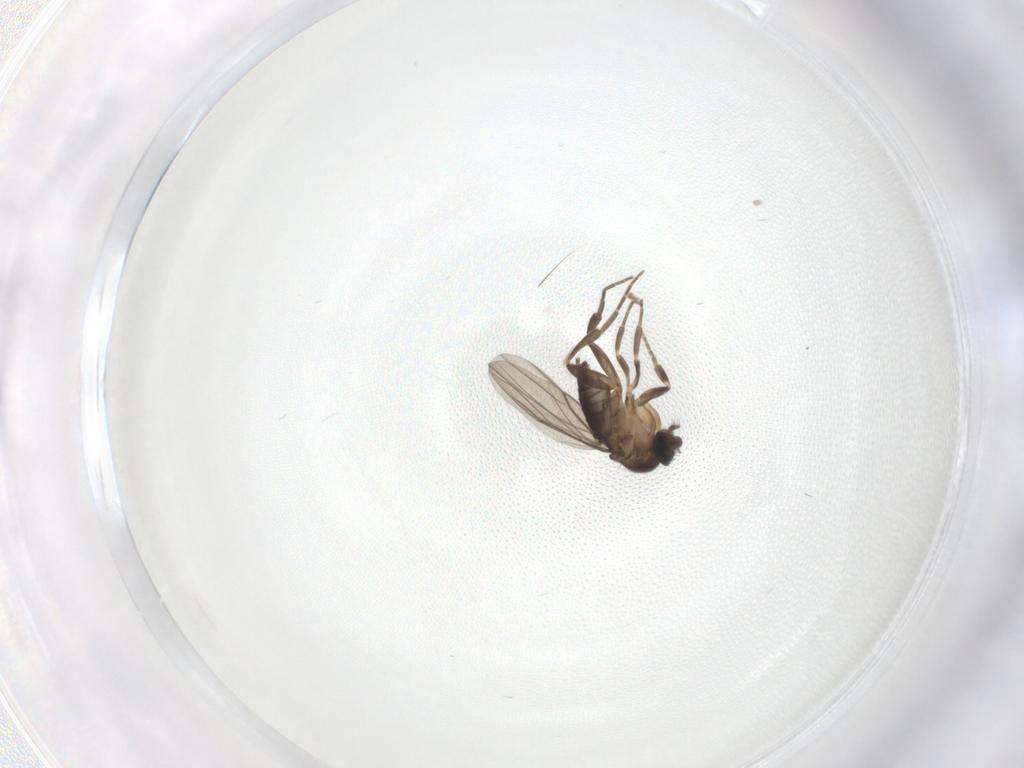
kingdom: Animalia
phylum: Arthropoda
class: Insecta
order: Diptera
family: Phoridae
